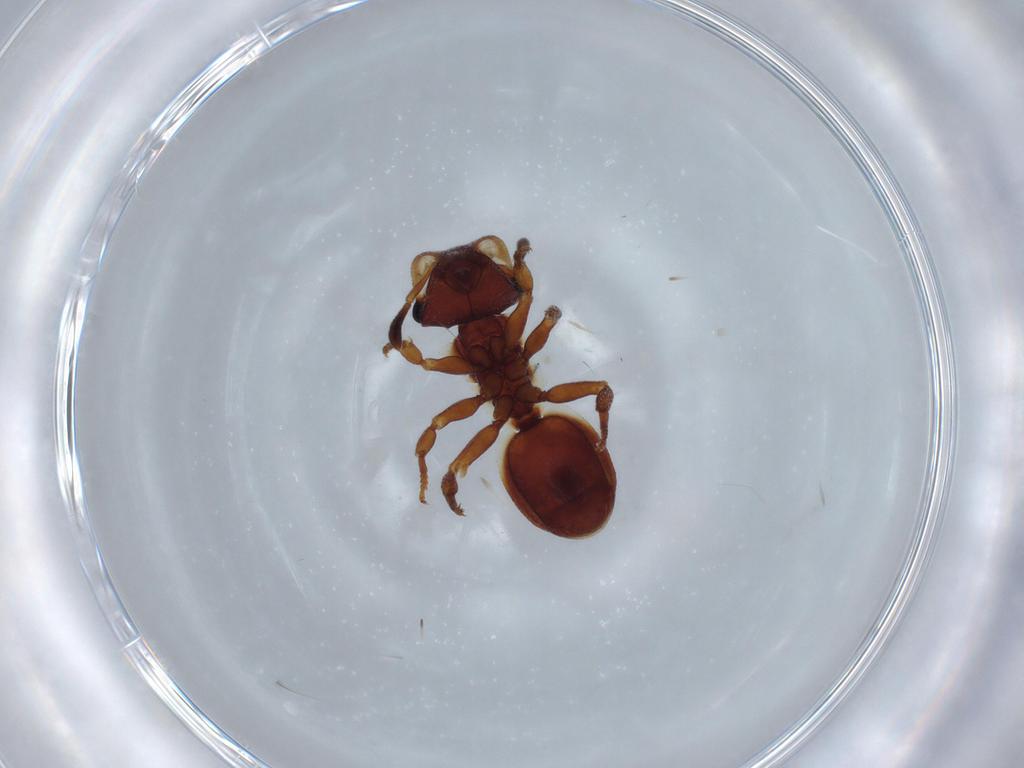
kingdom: Animalia
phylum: Arthropoda
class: Insecta
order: Hymenoptera
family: Formicidae
